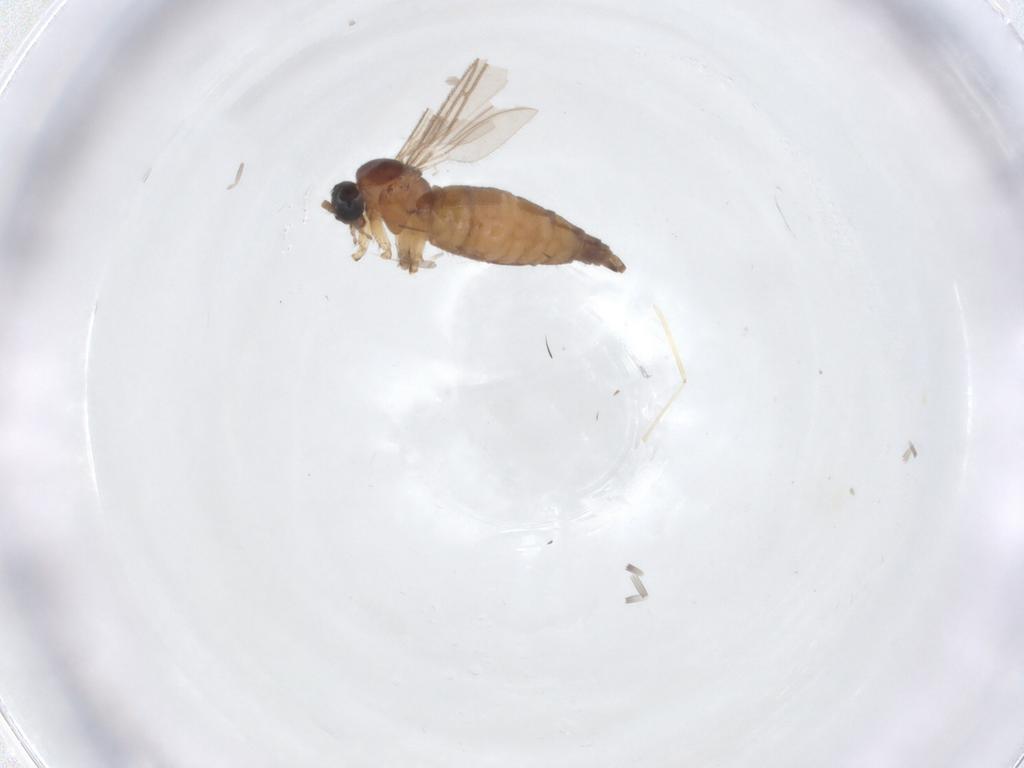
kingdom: Animalia
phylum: Arthropoda
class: Insecta
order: Diptera
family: Sciaridae
